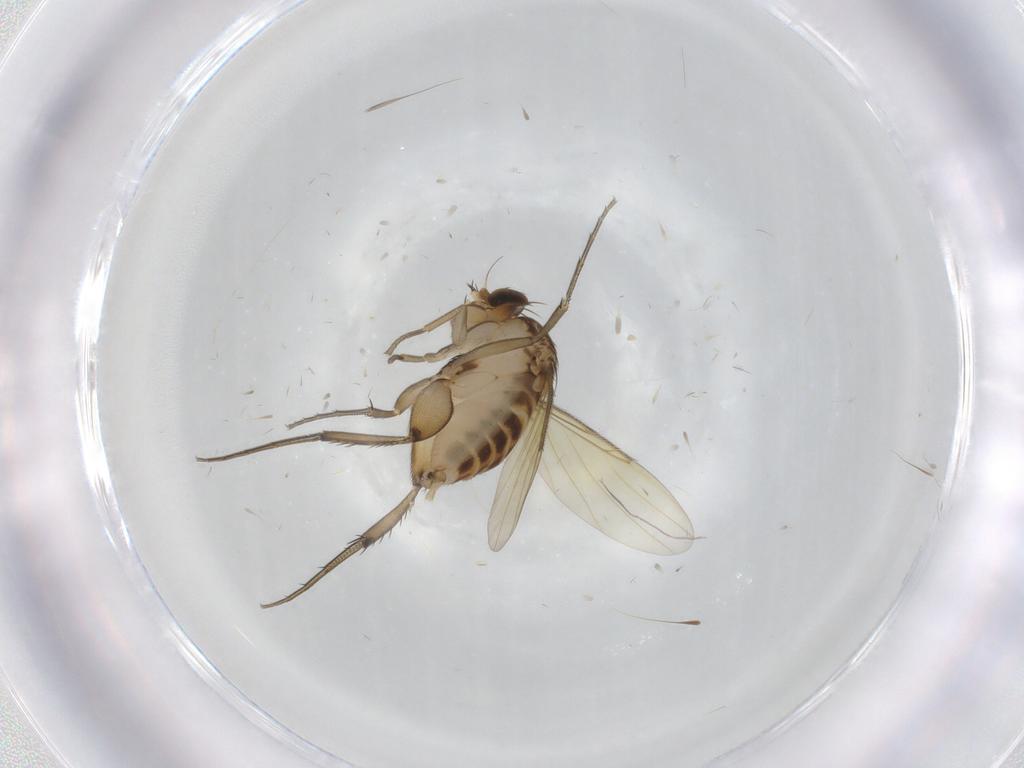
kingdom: Animalia
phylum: Arthropoda
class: Insecta
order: Diptera
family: Phoridae
